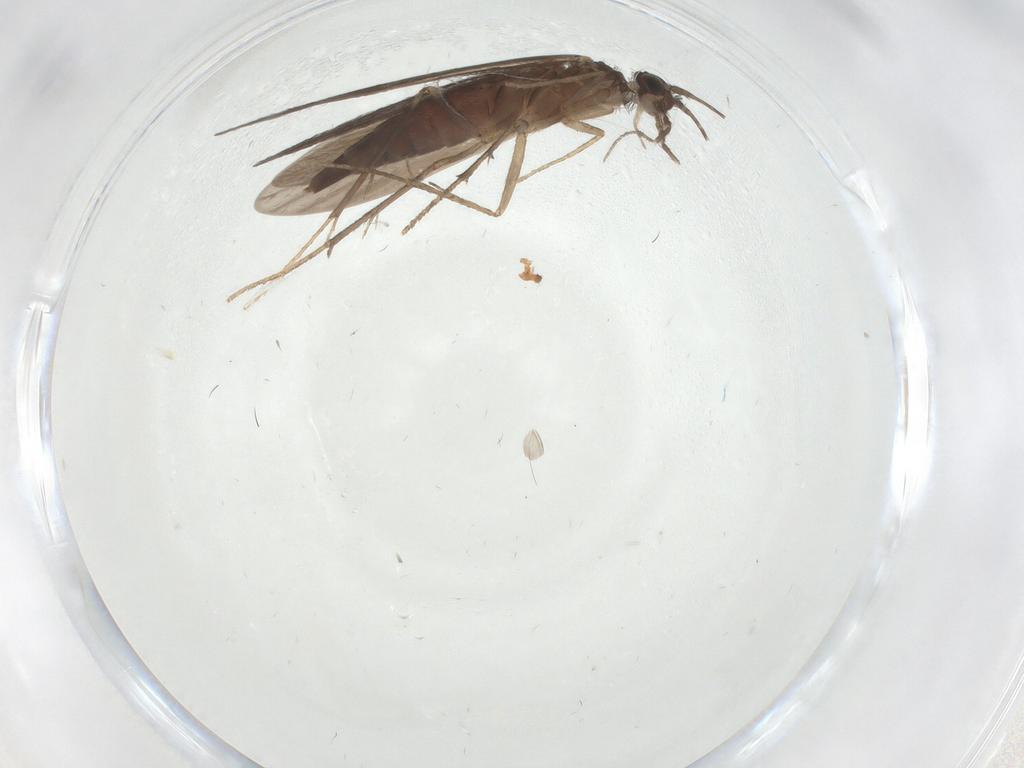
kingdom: Animalia
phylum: Arthropoda
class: Insecta
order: Trichoptera
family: Xiphocentronidae
